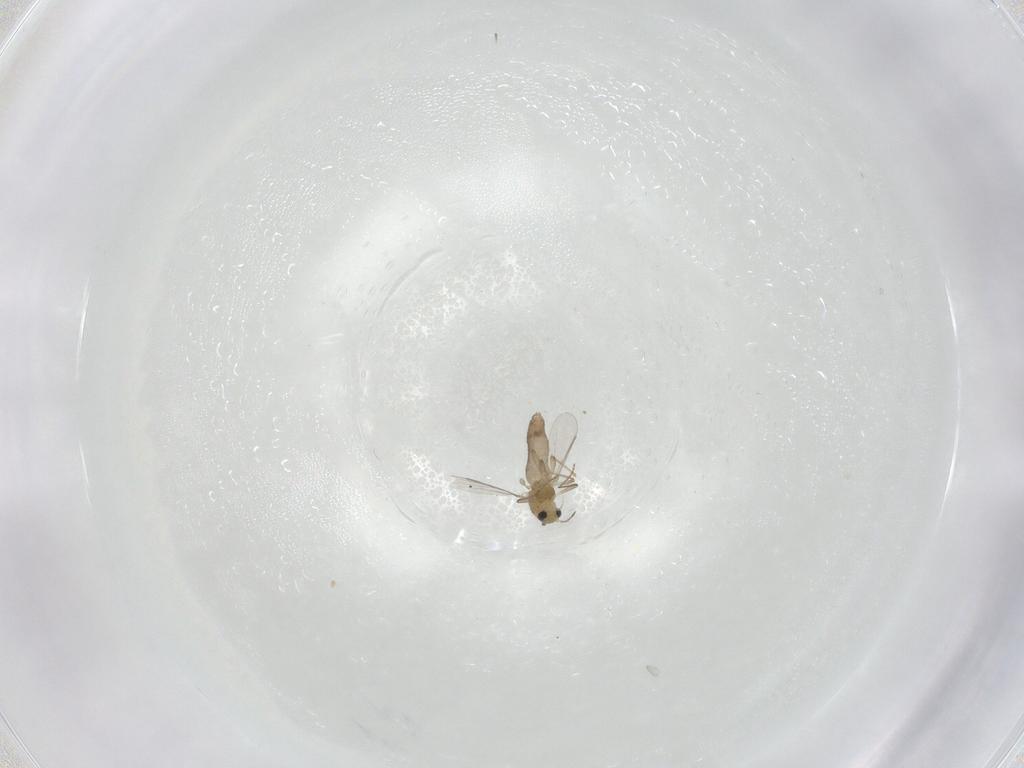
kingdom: Animalia
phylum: Arthropoda
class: Insecta
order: Diptera
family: Chironomidae
